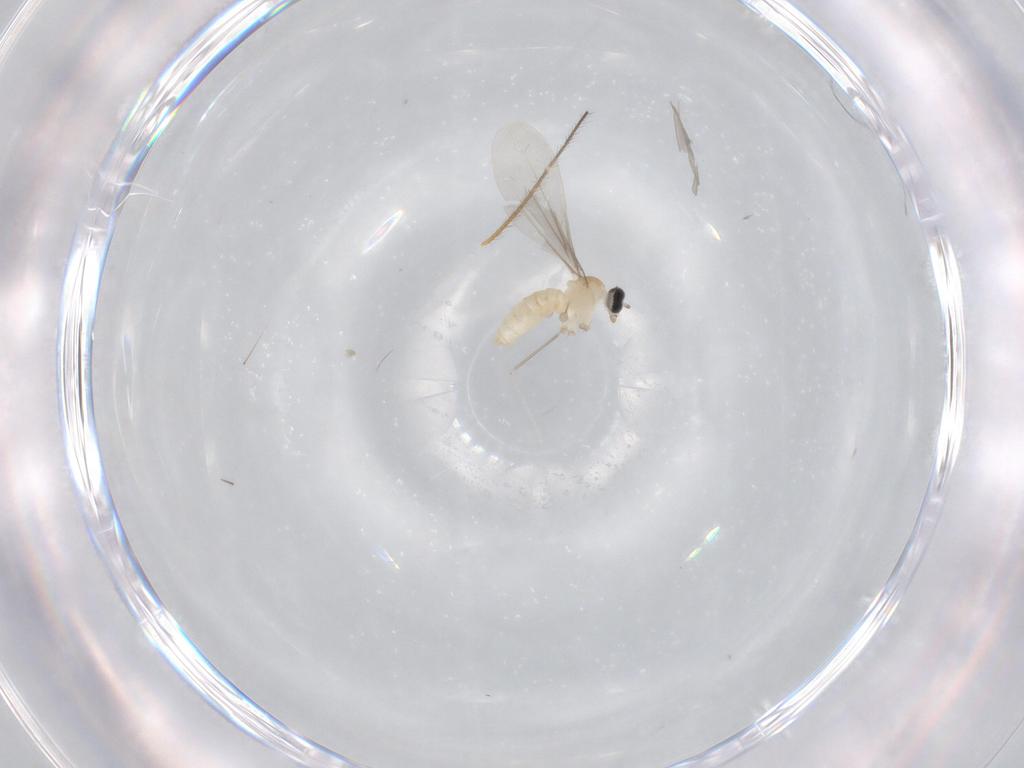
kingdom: Animalia
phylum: Arthropoda
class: Insecta
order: Diptera
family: Cecidomyiidae
